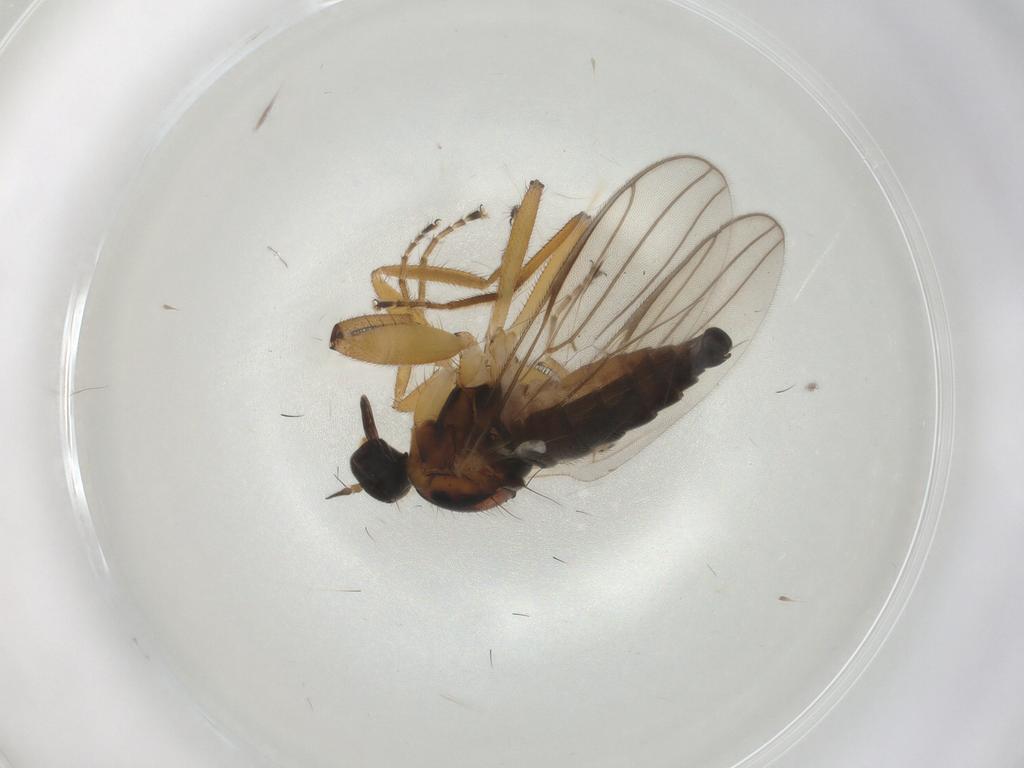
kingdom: Animalia
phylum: Arthropoda
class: Insecta
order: Diptera
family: Hybotidae
